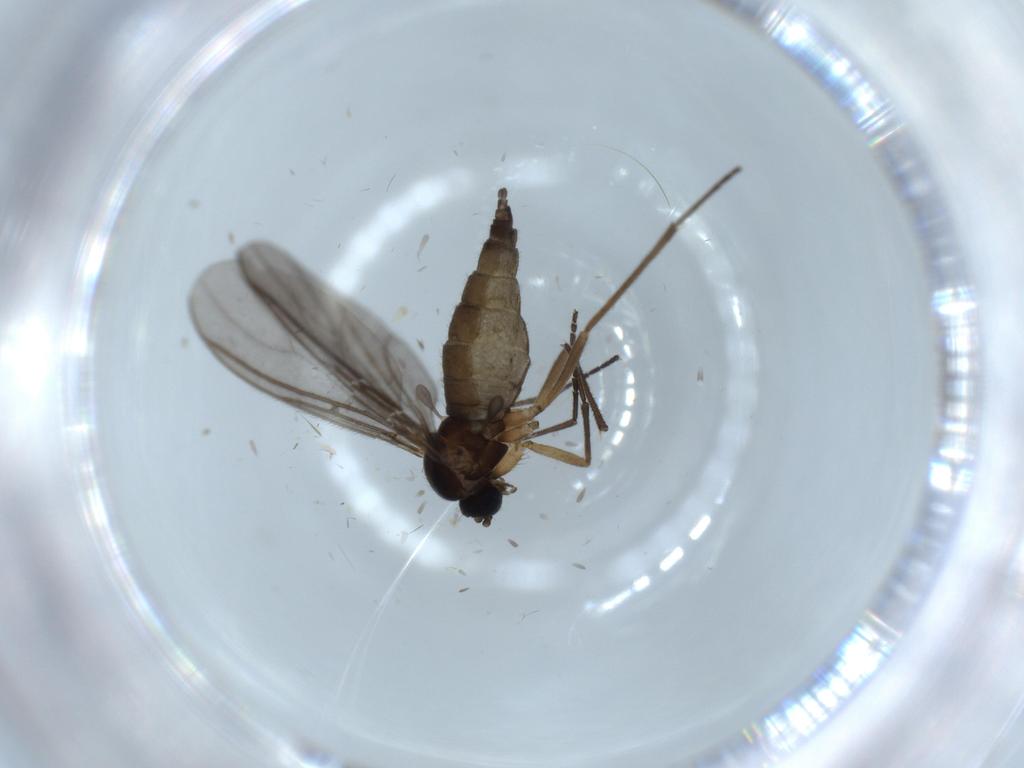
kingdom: Animalia
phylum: Arthropoda
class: Insecta
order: Diptera
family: Sciaridae
